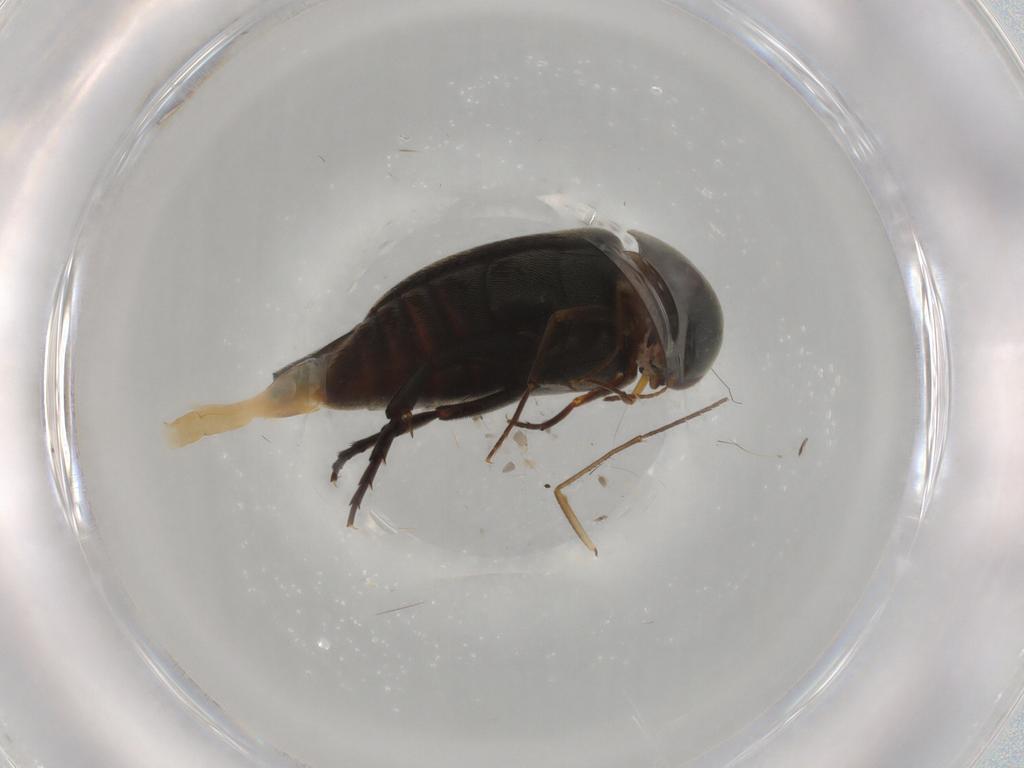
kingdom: Animalia
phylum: Arthropoda
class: Insecta
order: Coleoptera
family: Mordellidae
